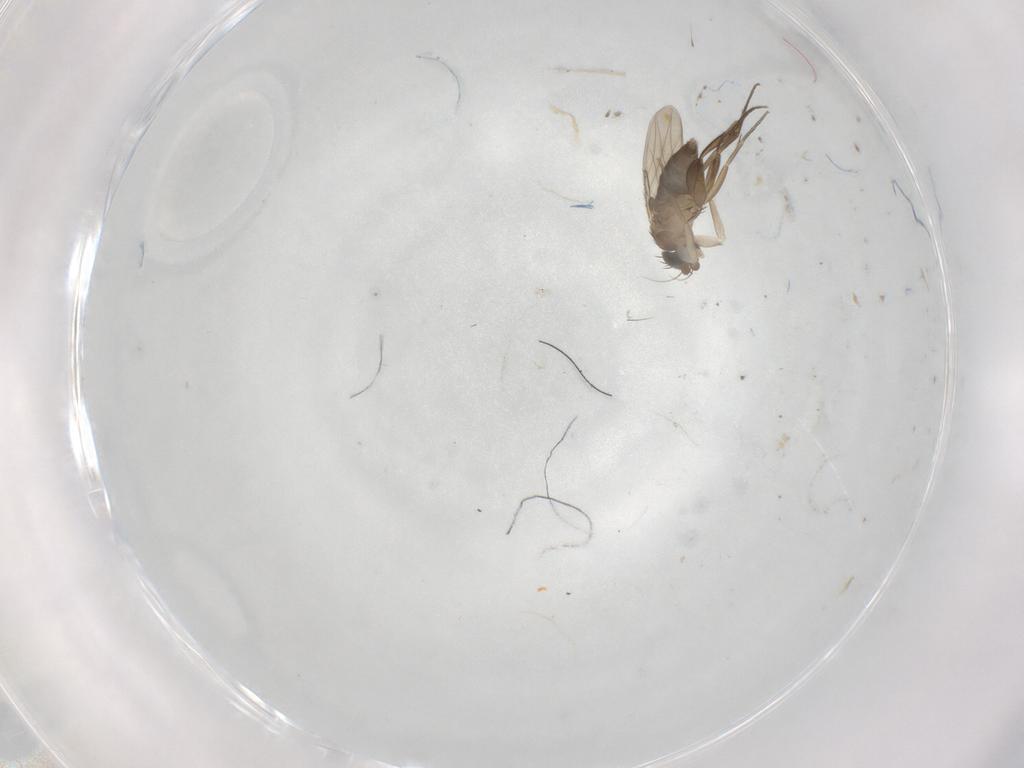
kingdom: Animalia
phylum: Arthropoda
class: Insecta
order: Diptera
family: Phoridae
